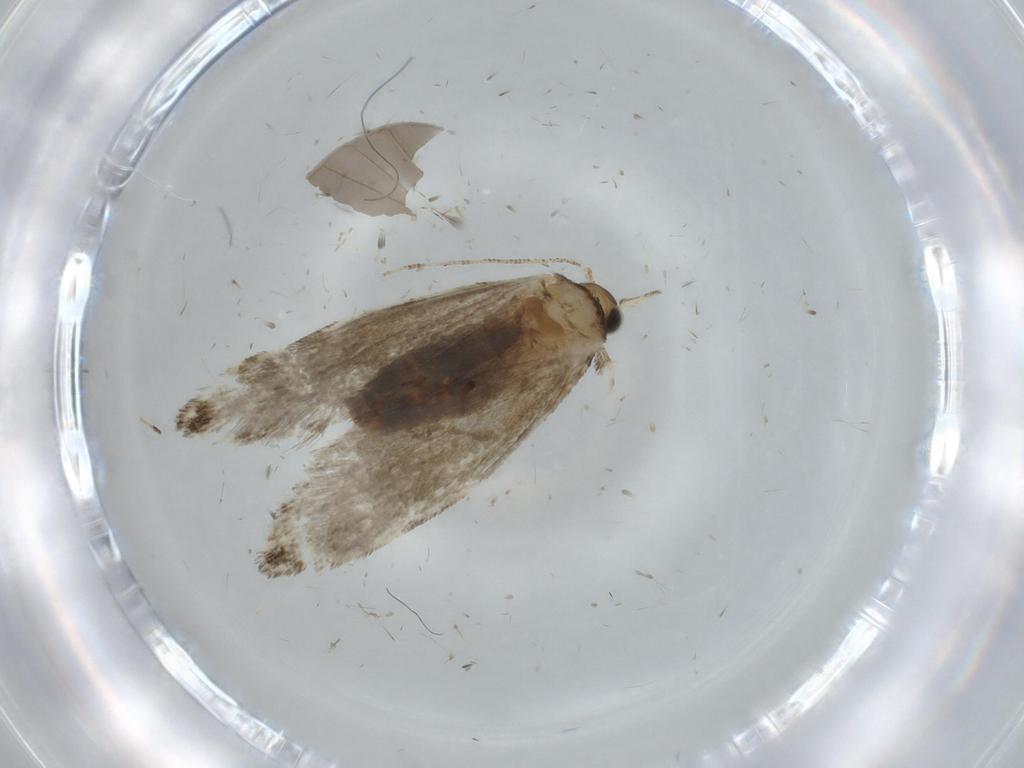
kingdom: Animalia
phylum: Arthropoda
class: Insecta
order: Lepidoptera
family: Tineidae
